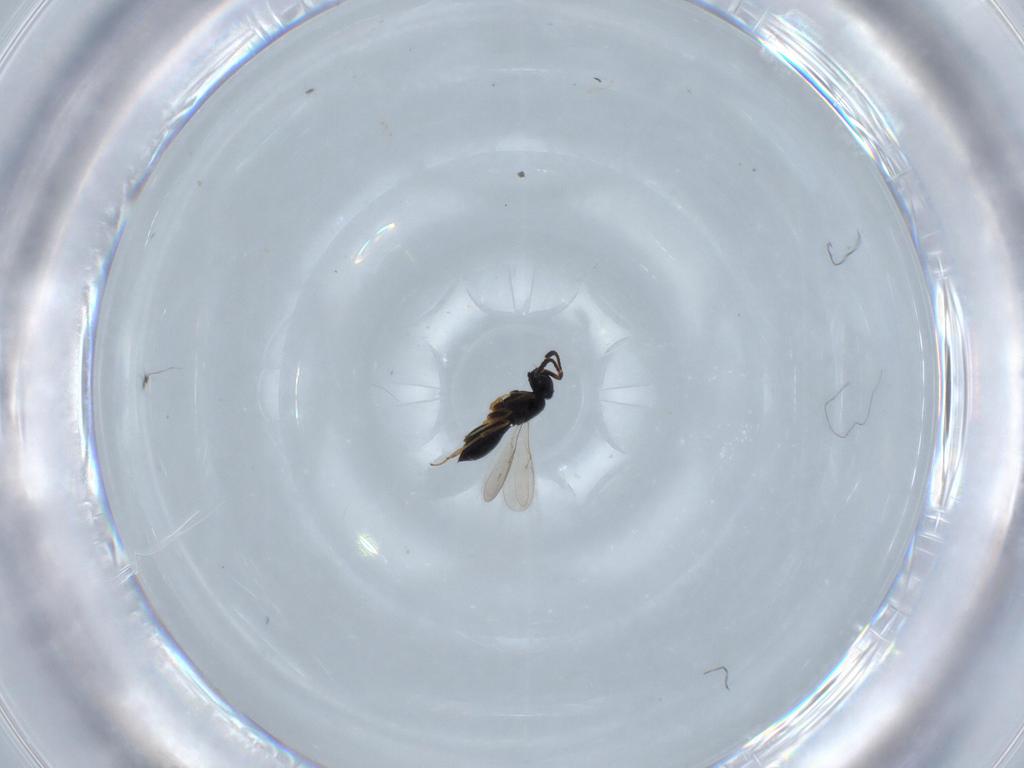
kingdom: Animalia
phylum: Arthropoda
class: Insecta
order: Hymenoptera
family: Scelionidae
